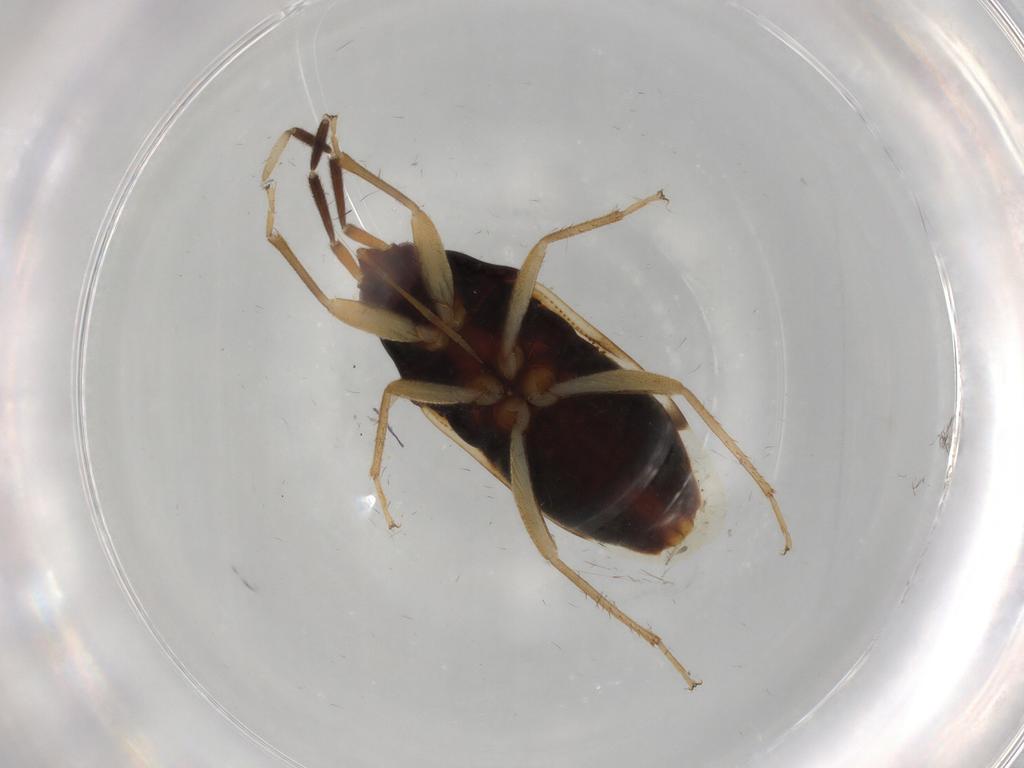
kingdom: Animalia
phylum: Arthropoda
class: Insecta
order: Hemiptera
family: Rhyparochromidae
